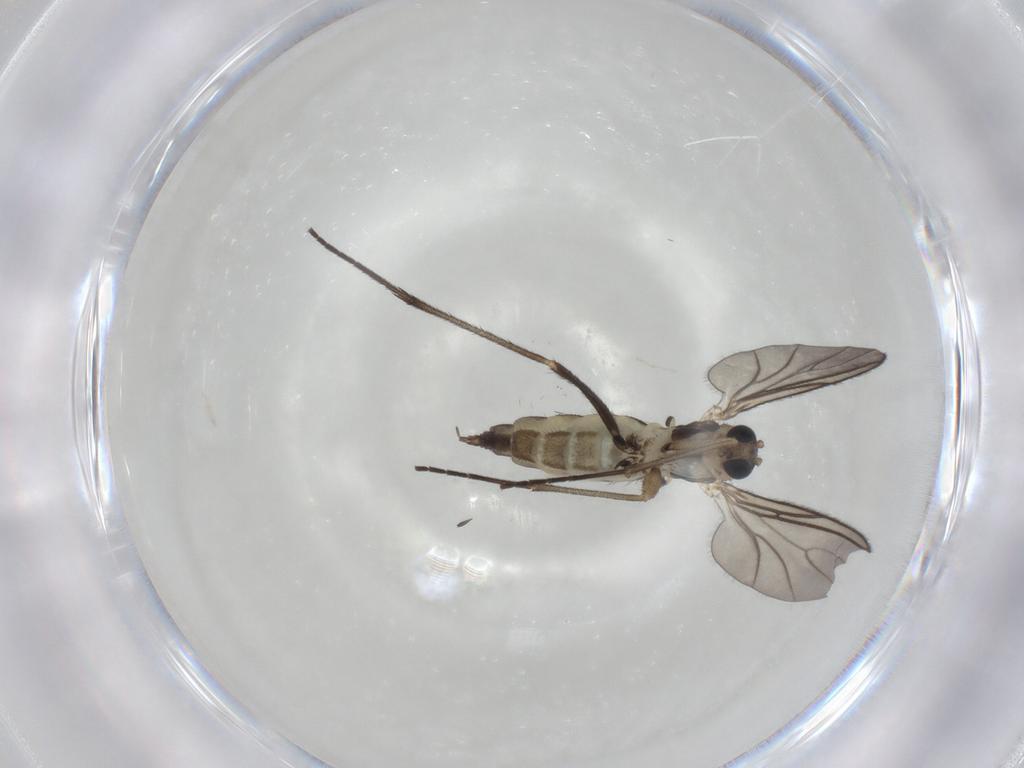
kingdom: Animalia
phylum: Arthropoda
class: Insecta
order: Diptera
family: Sciaridae
